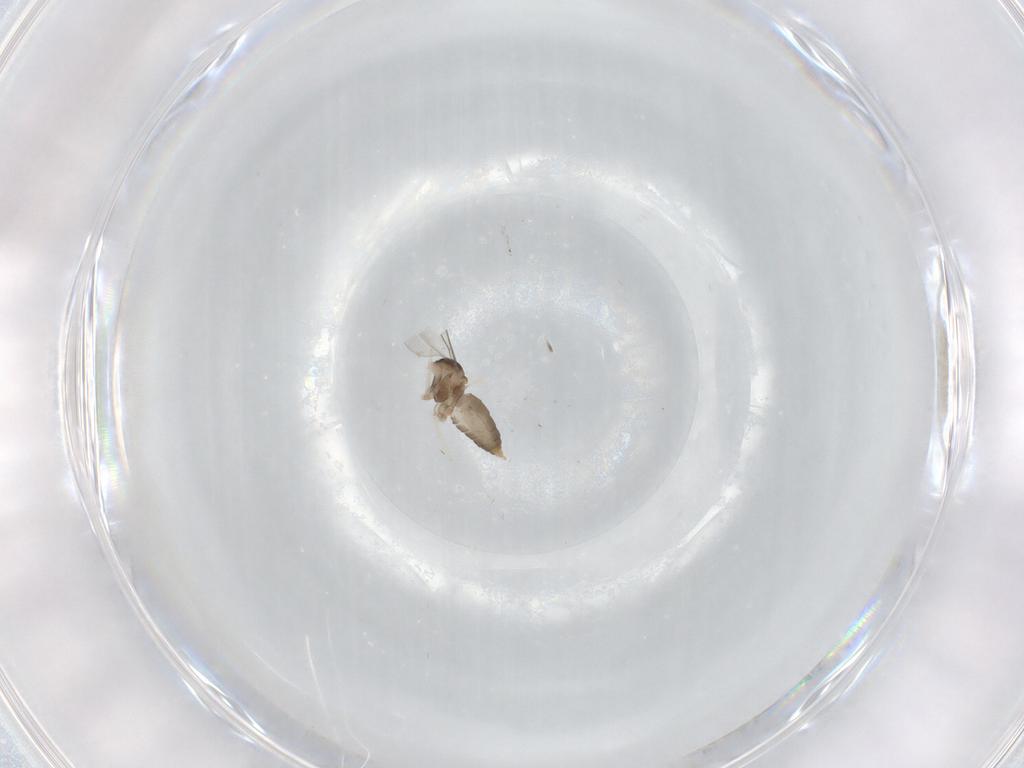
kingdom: Animalia
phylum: Arthropoda
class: Insecta
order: Diptera
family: Cecidomyiidae
